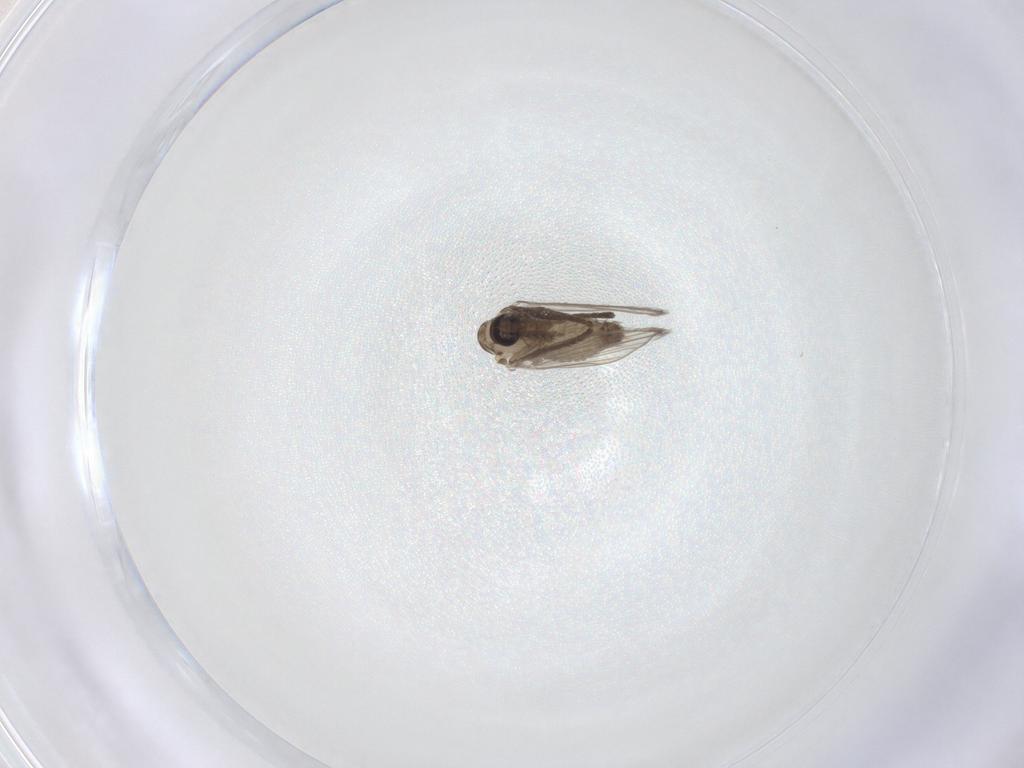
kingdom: Animalia
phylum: Arthropoda
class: Insecta
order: Diptera
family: Psychodidae
